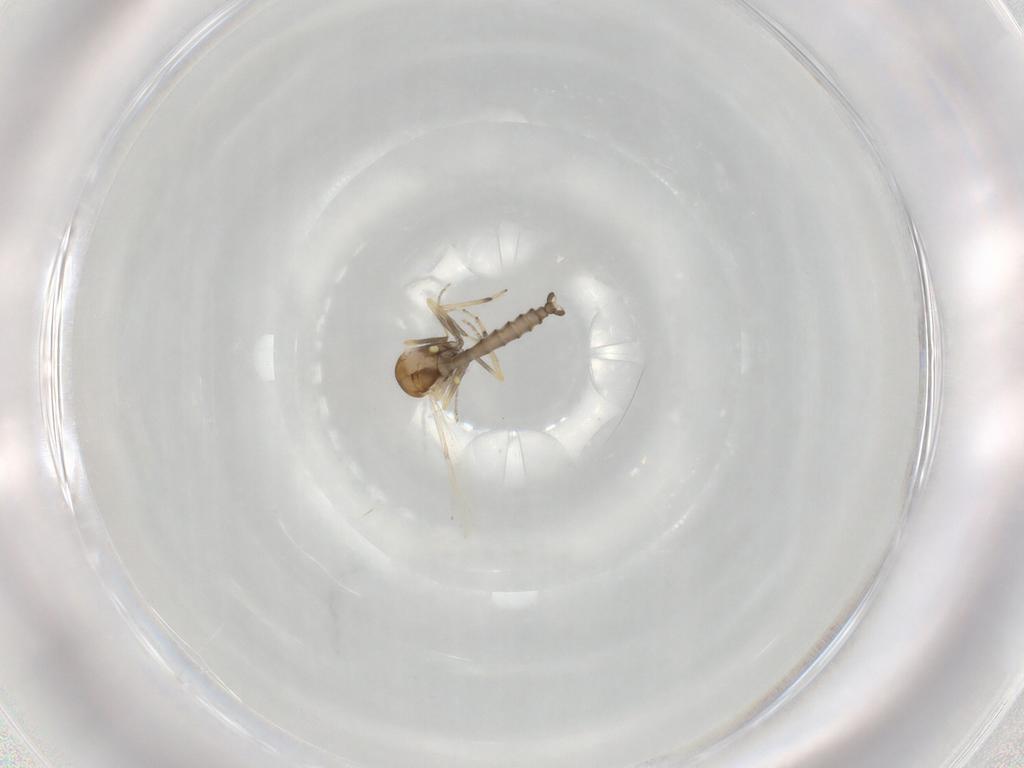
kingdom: Animalia
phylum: Arthropoda
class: Insecta
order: Diptera
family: Ceratopogonidae
